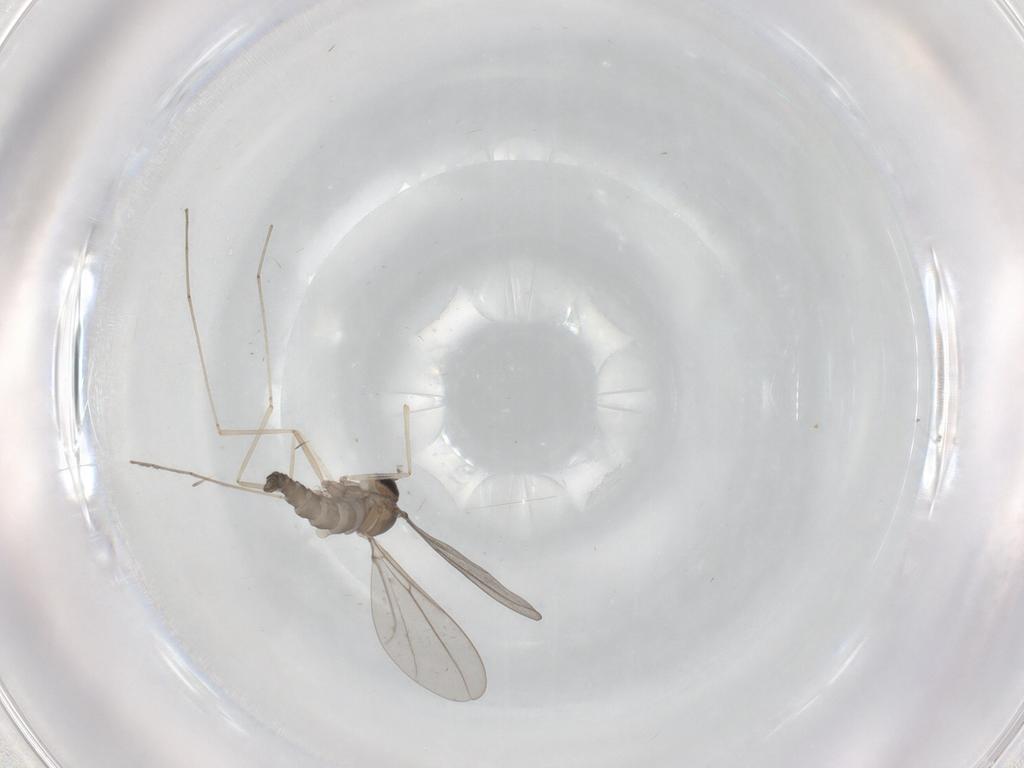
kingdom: Animalia
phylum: Arthropoda
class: Insecta
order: Diptera
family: Cecidomyiidae
